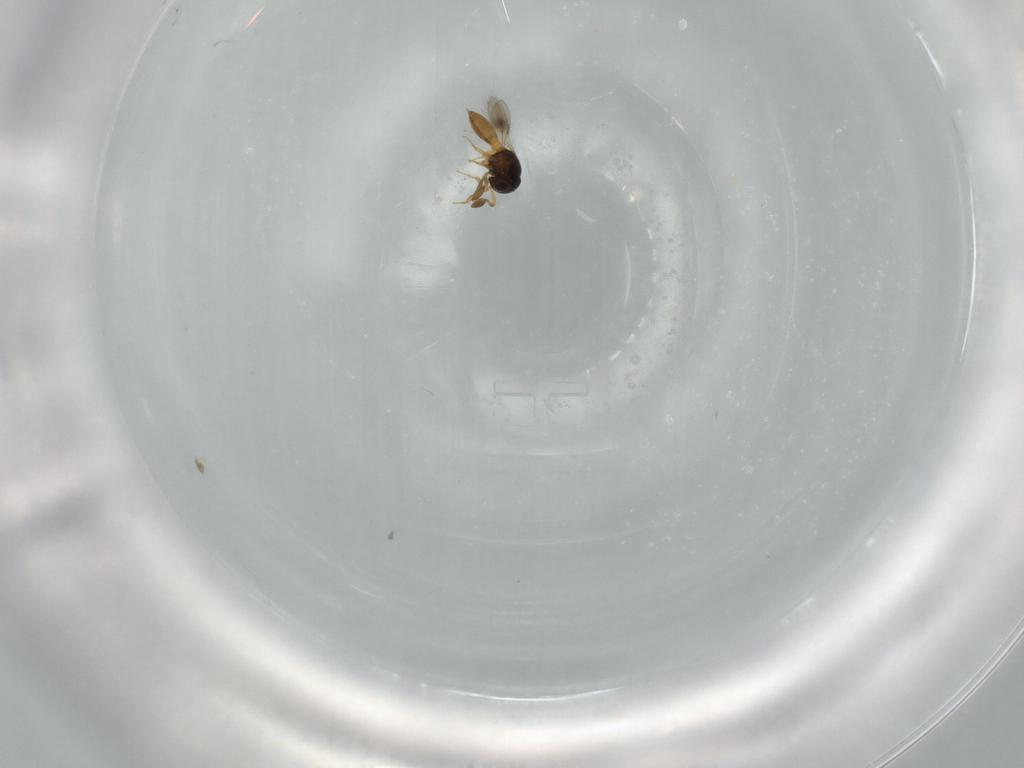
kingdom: Animalia
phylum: Arthropoda
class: Insecta
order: Hymenoptera
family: Scelionidae
